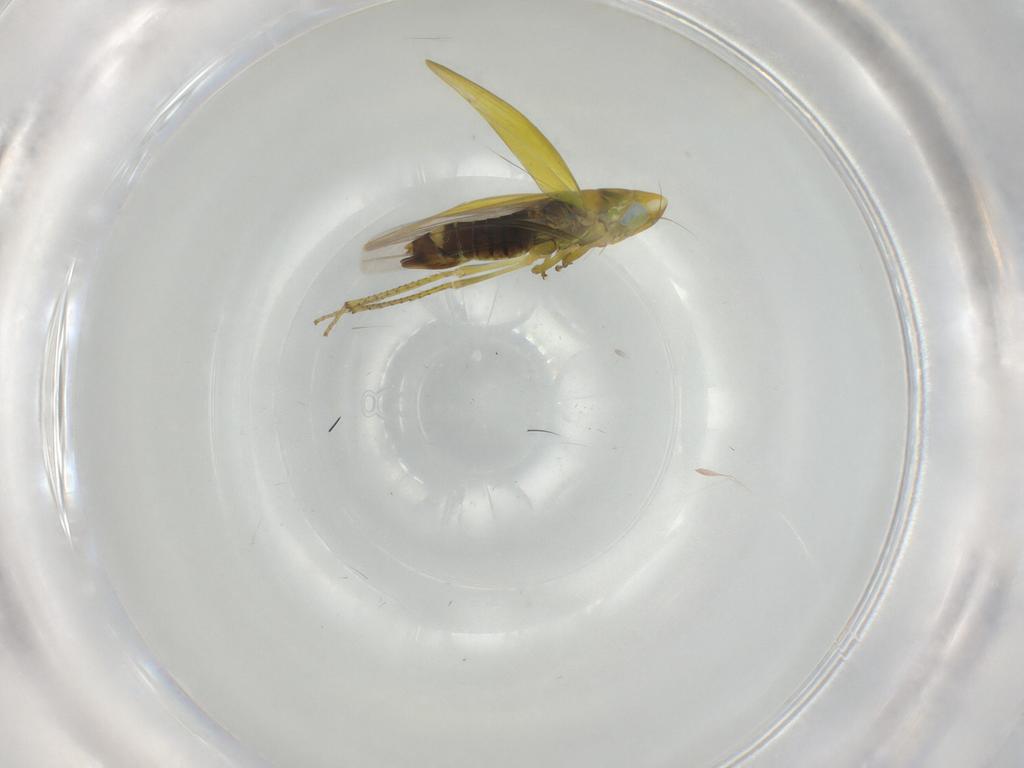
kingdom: Animalia
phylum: Arthropoda
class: Insecta
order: Hemiptera
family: Cicadellidae
